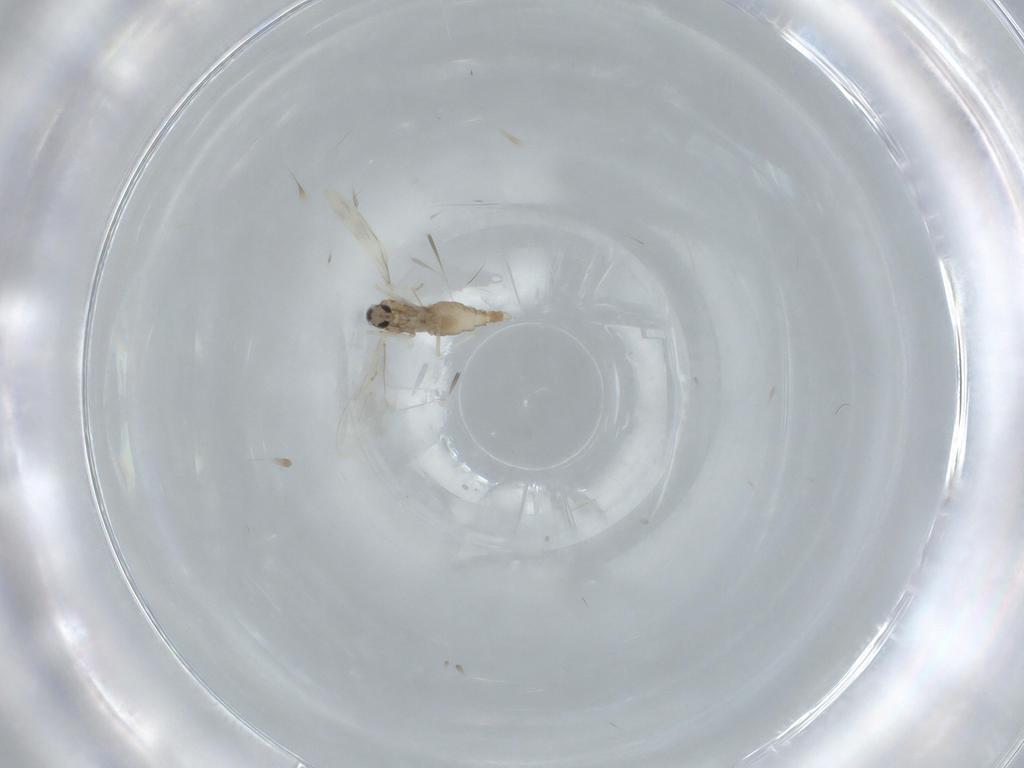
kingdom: Animalia
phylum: Arthropoda
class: Insecta
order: Diptera
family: Cecidomyiidae
